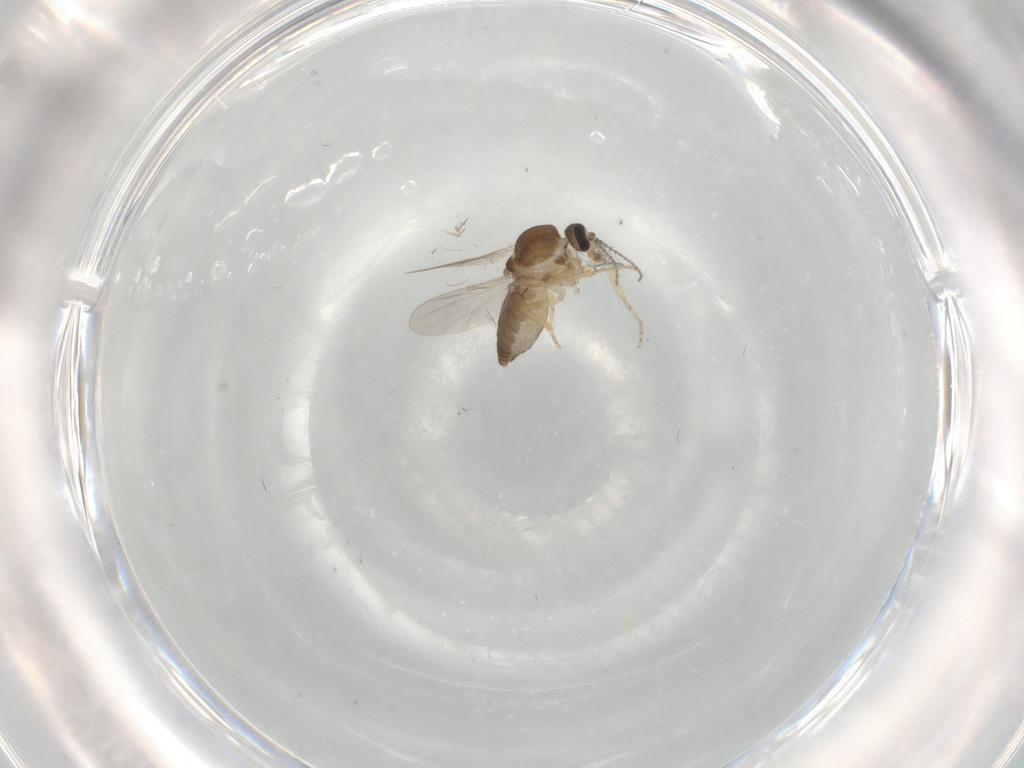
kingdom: Animalia
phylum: Arthropoda
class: Insecta
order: Diptera
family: Ceratopogonidae
